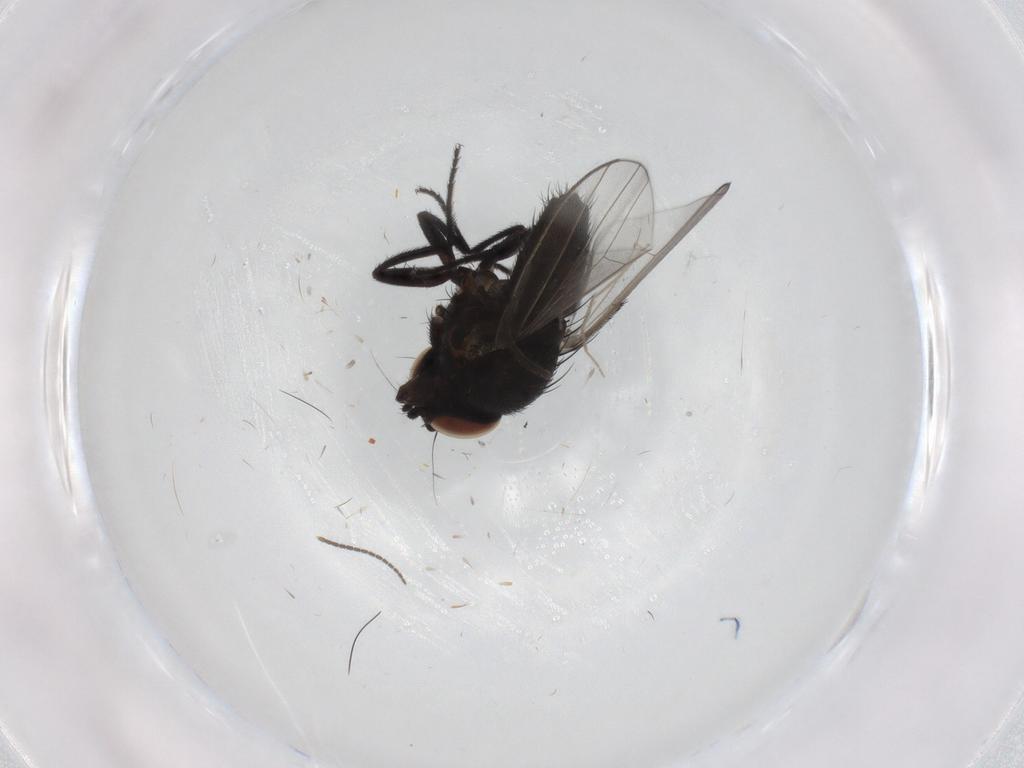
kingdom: Animalia
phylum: Arthropoda
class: Insecta
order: Diptera
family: Milichiidae
